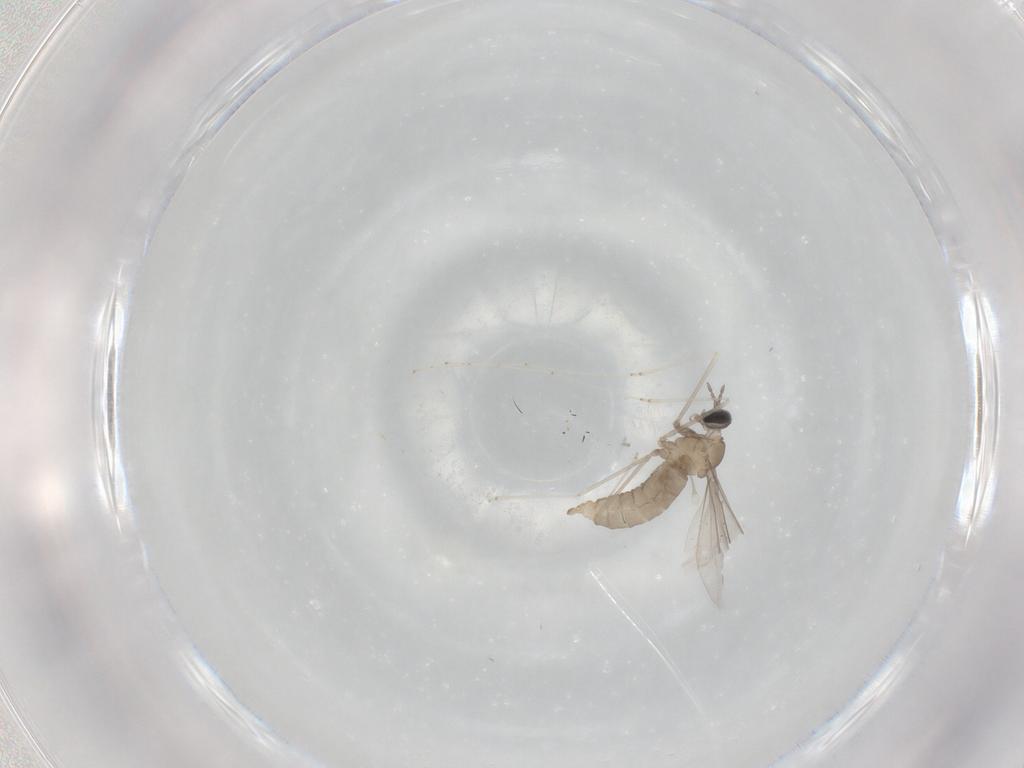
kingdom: Animalia
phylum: Arthropoda
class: Insecta
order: Diptera
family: Cecidomyiidae
